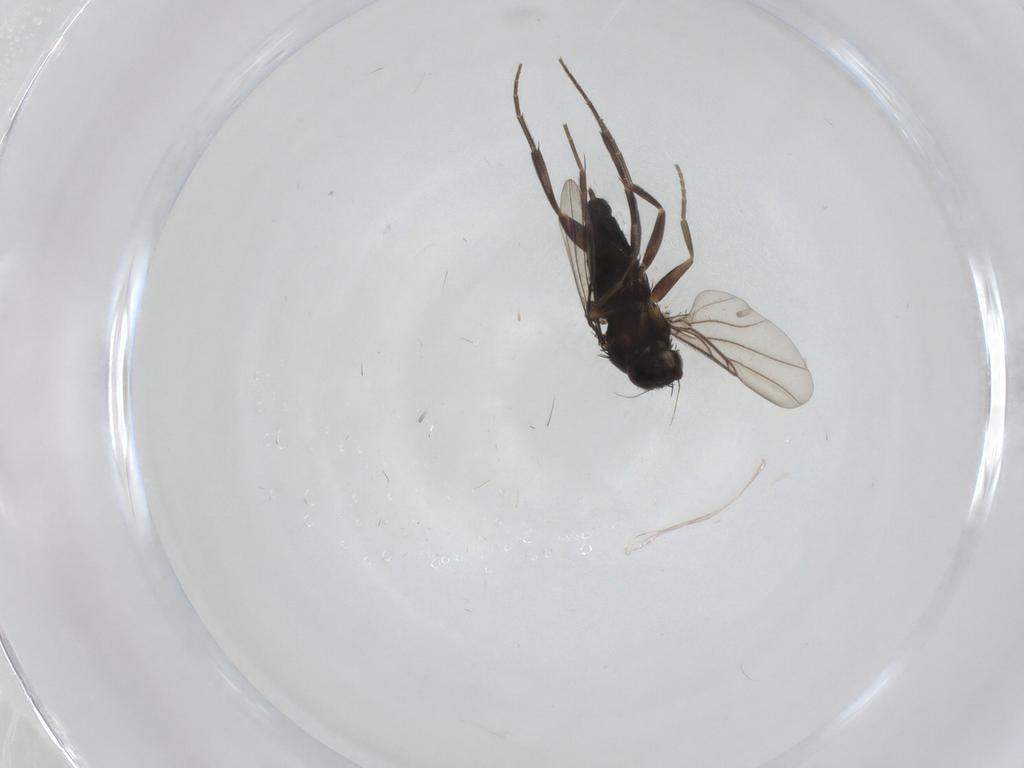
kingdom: Animalia
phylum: Arthropoda
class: Insecta
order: Diptera
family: Phoridae
